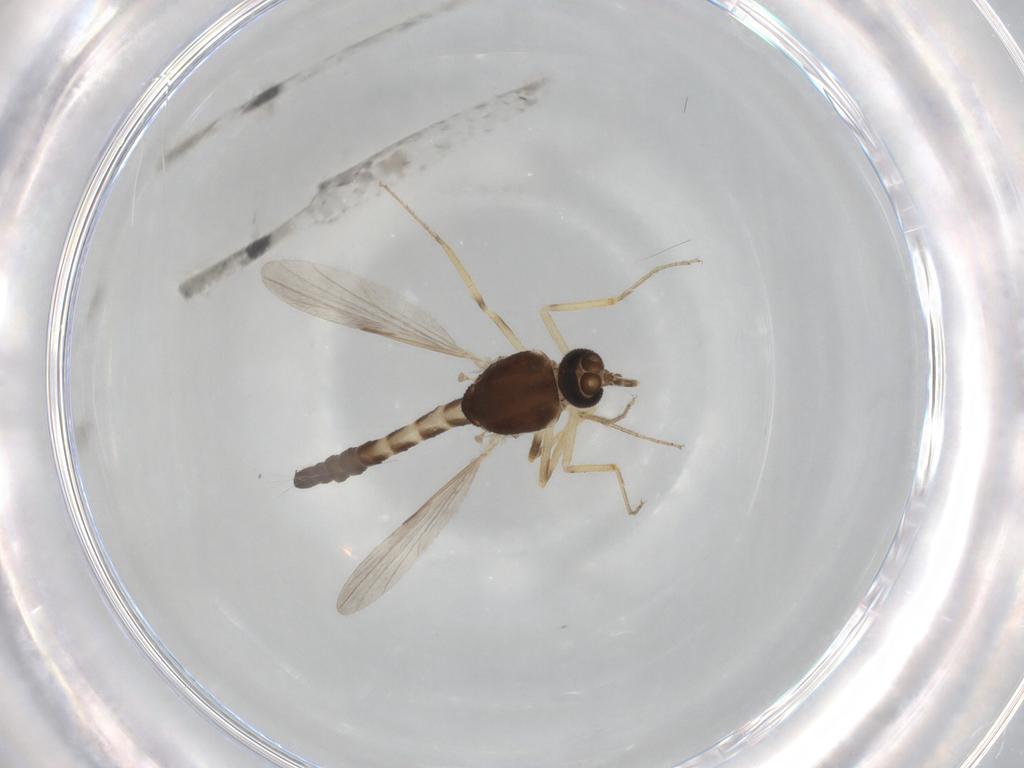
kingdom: Animalia
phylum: Arthropoda
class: Insecta
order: Diptera
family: Ceratopogonidae
